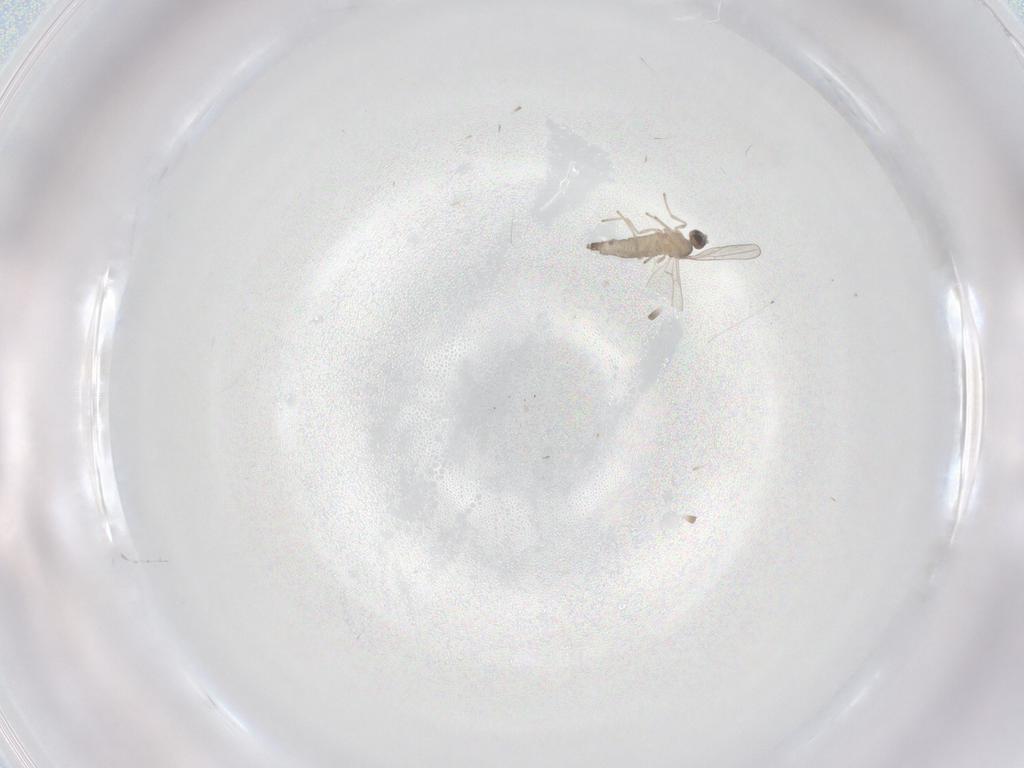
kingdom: Animalia
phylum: Arthropoda
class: Insecta
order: Diptera
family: Cecidomyiidae
